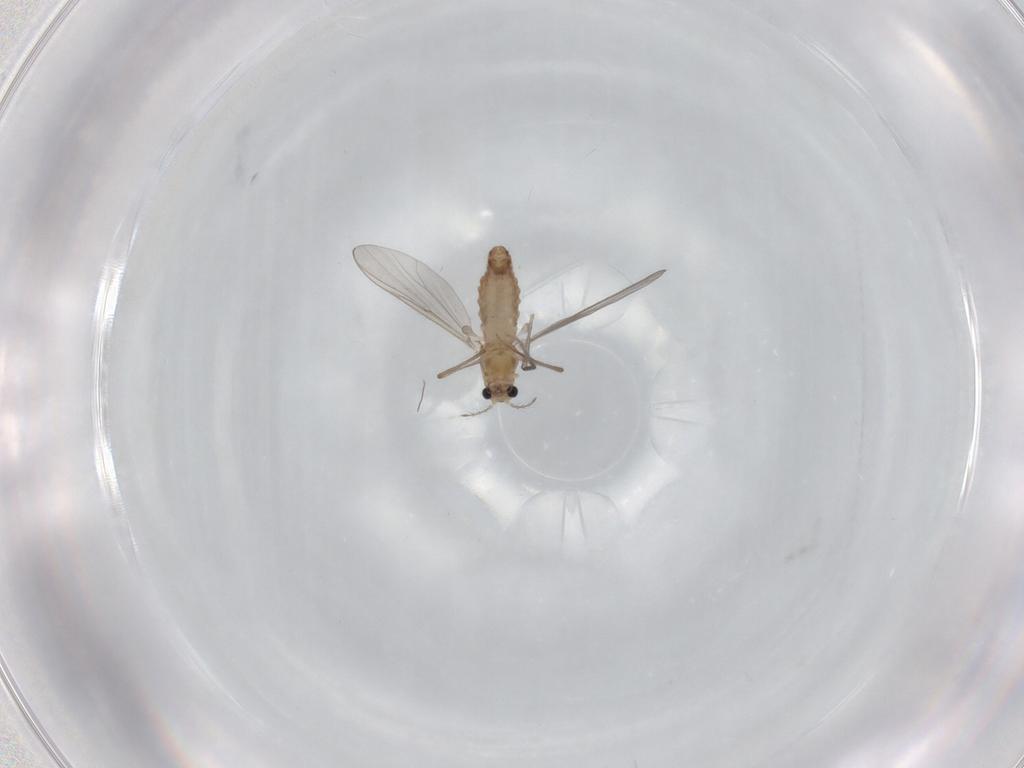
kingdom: Animalia
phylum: Arthropoda
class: Insecta
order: Diptera
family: Chironomidae
